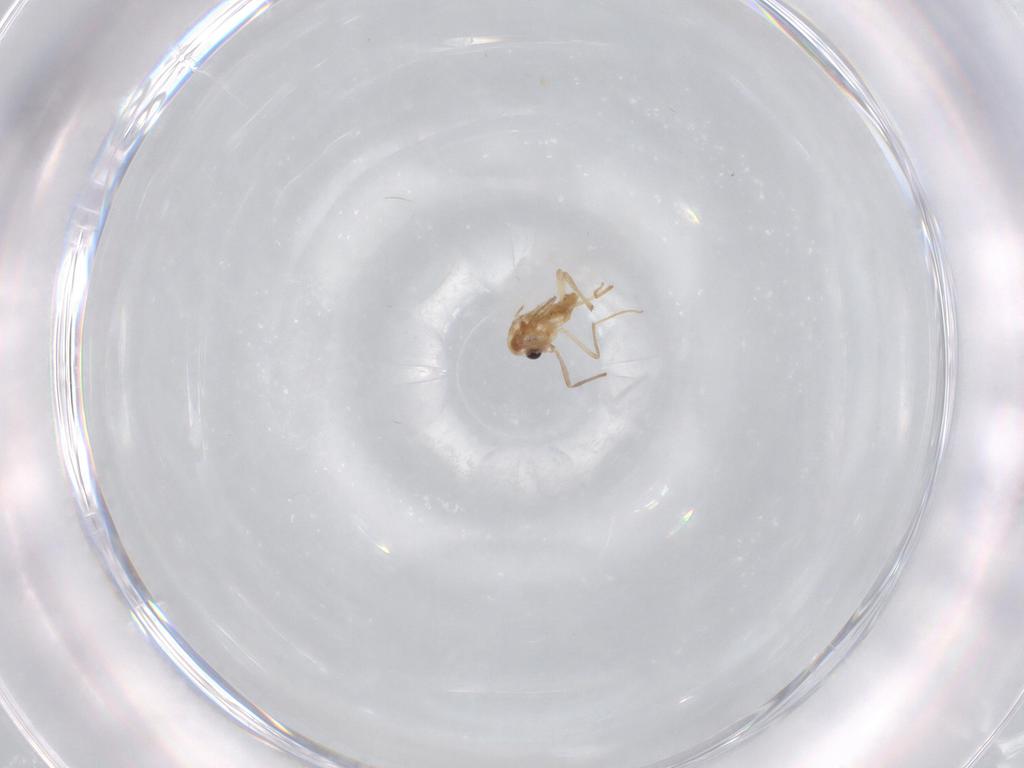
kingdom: Animalia
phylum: Arthropoda
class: Insecta
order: Diptera
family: Chironomidae
